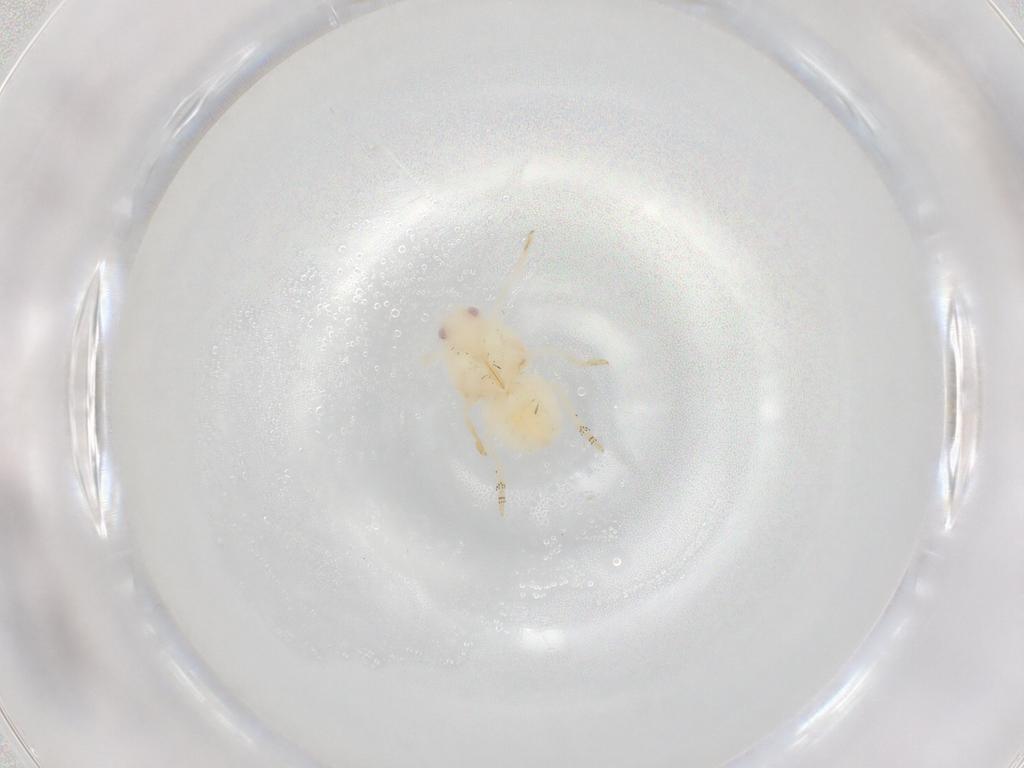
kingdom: Animalia
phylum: Arthropoda
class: Insecta
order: Hemiptera
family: Flatidae
